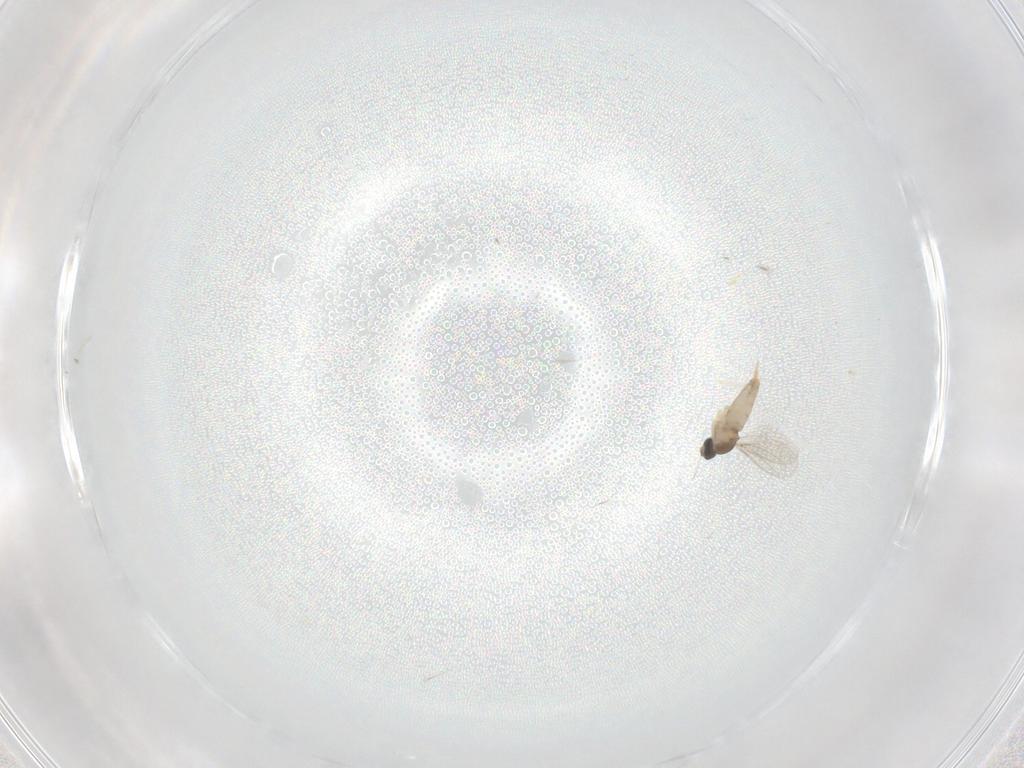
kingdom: Animalia
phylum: Arthropoda
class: Insecta
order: Diptera
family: Cecidomyiidae
